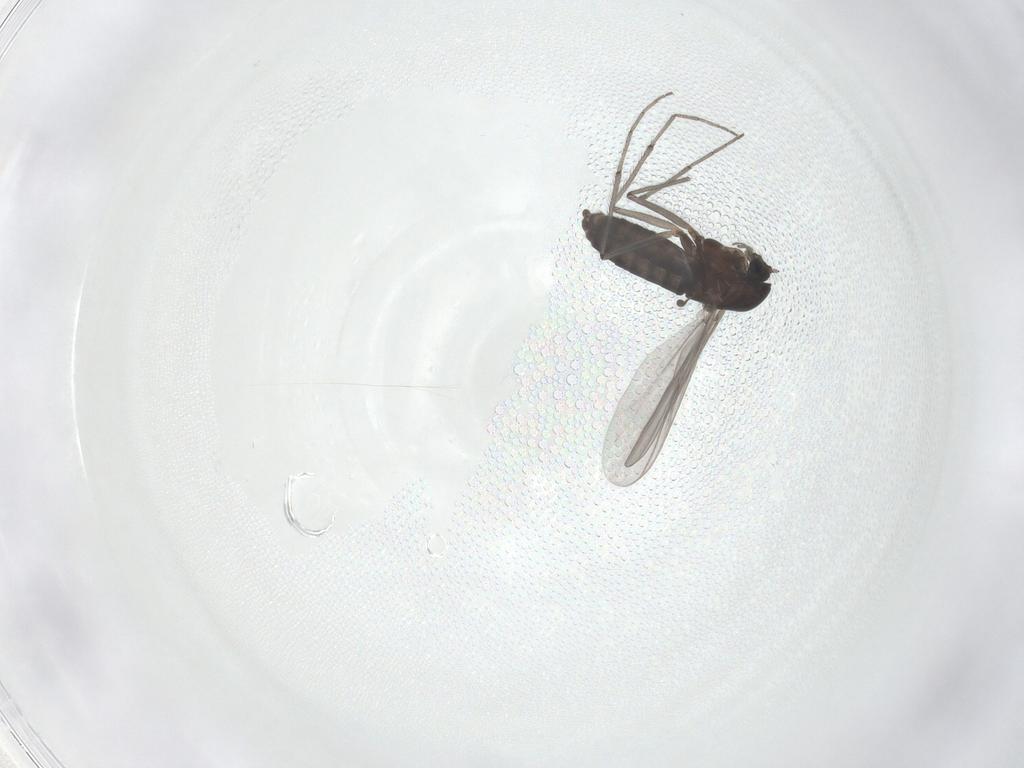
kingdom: Animalia
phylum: Arthropoda
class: Insecta
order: Diptera
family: Chironomidae
